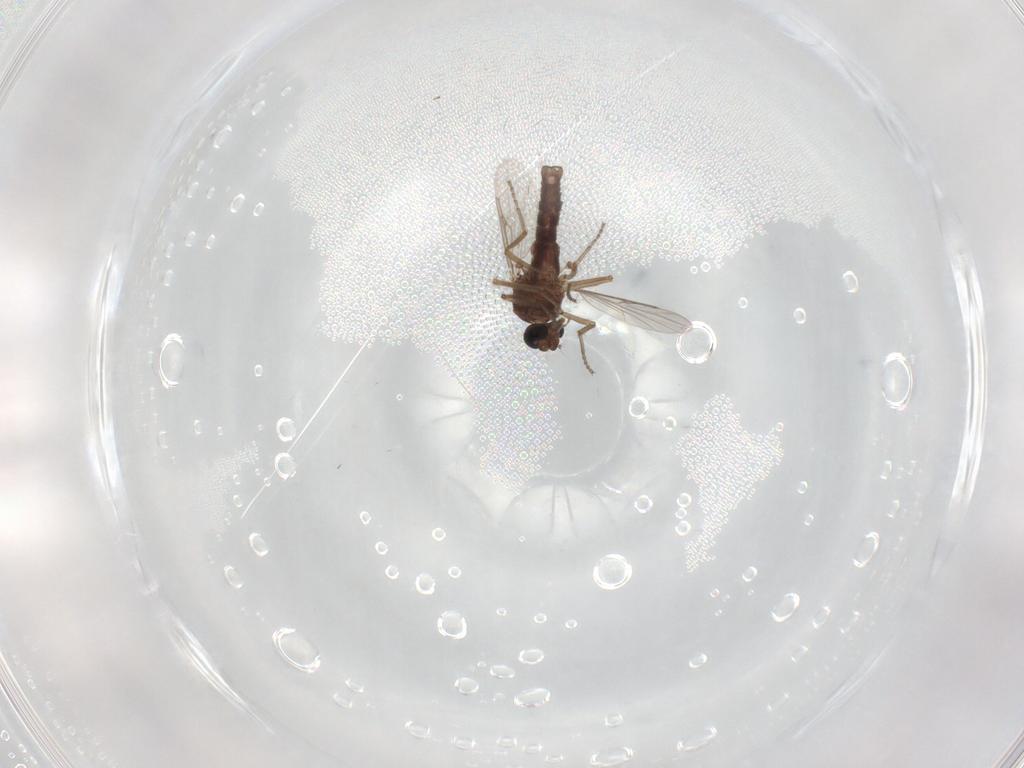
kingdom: Animalia
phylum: Arthropoda
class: Insecta
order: Diptera
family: Ceratopogonidae
